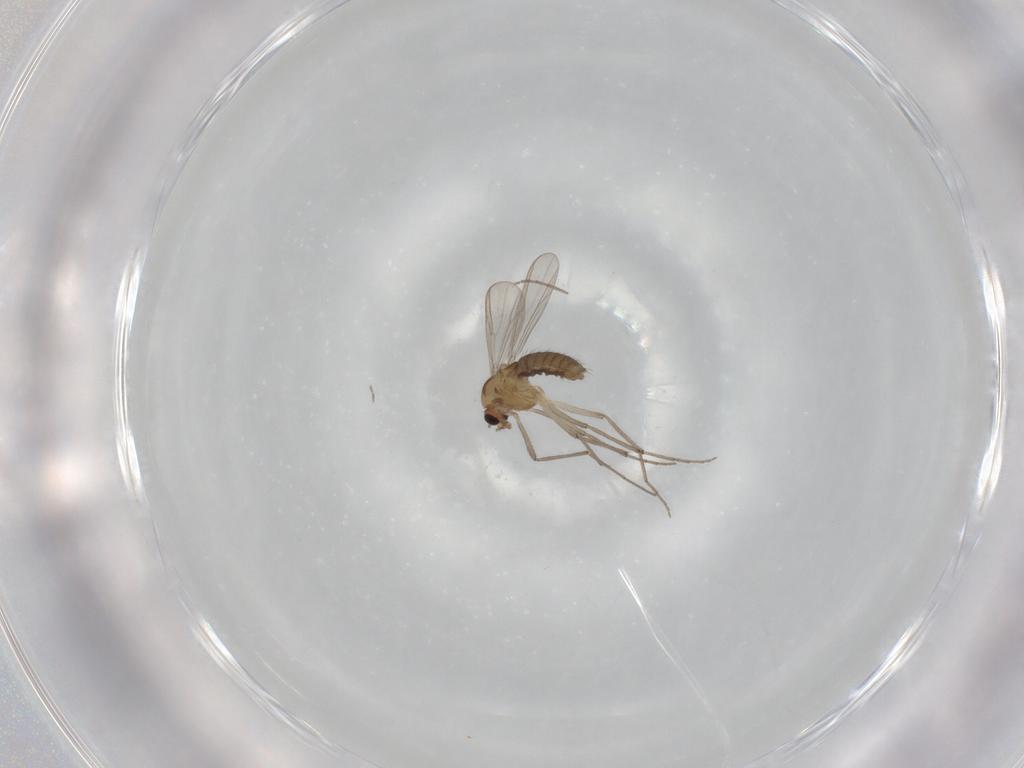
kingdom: Animalia
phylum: Arthropoda
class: Insecta
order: Diptera
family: Chironomidae
